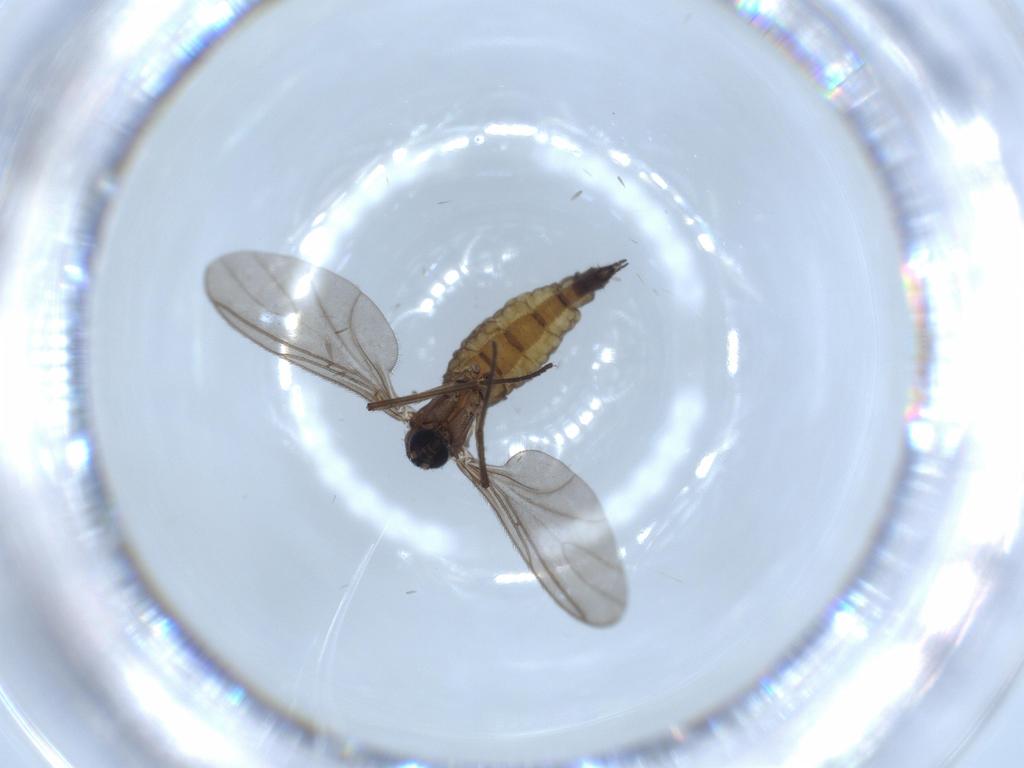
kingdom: Animalia
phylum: Arthropoda
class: Insecta
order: Diptera
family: Sciaridae
